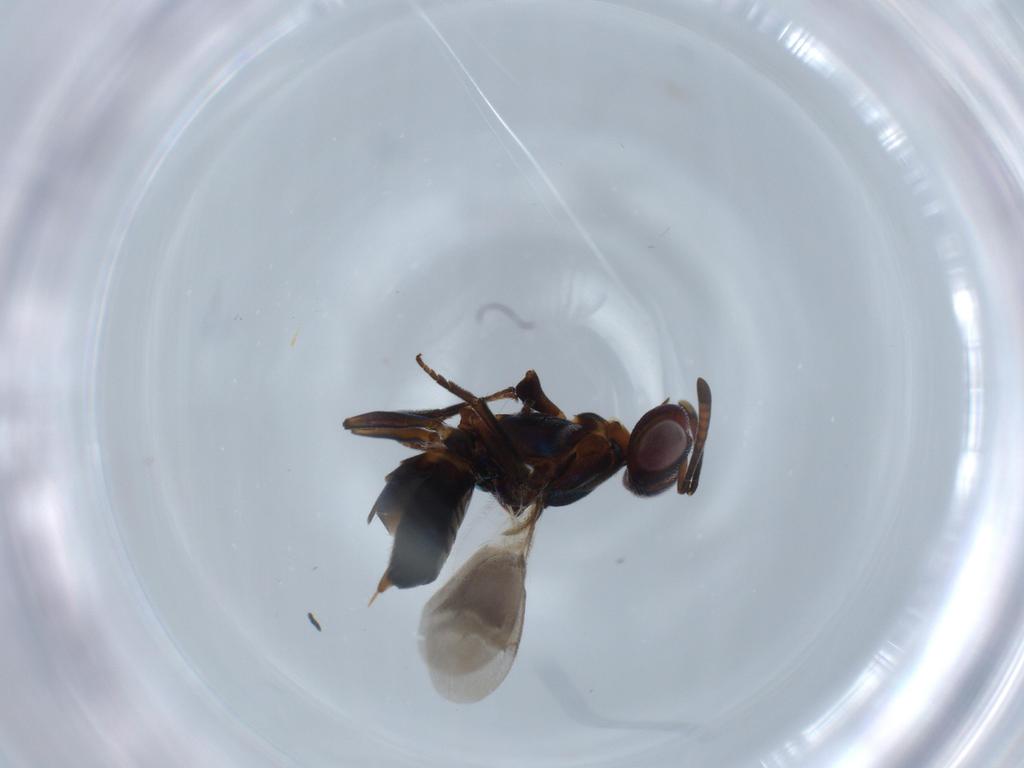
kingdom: Animalia
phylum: Arthropoda
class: Insecta
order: Hymenoptera
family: Eupelmidae
